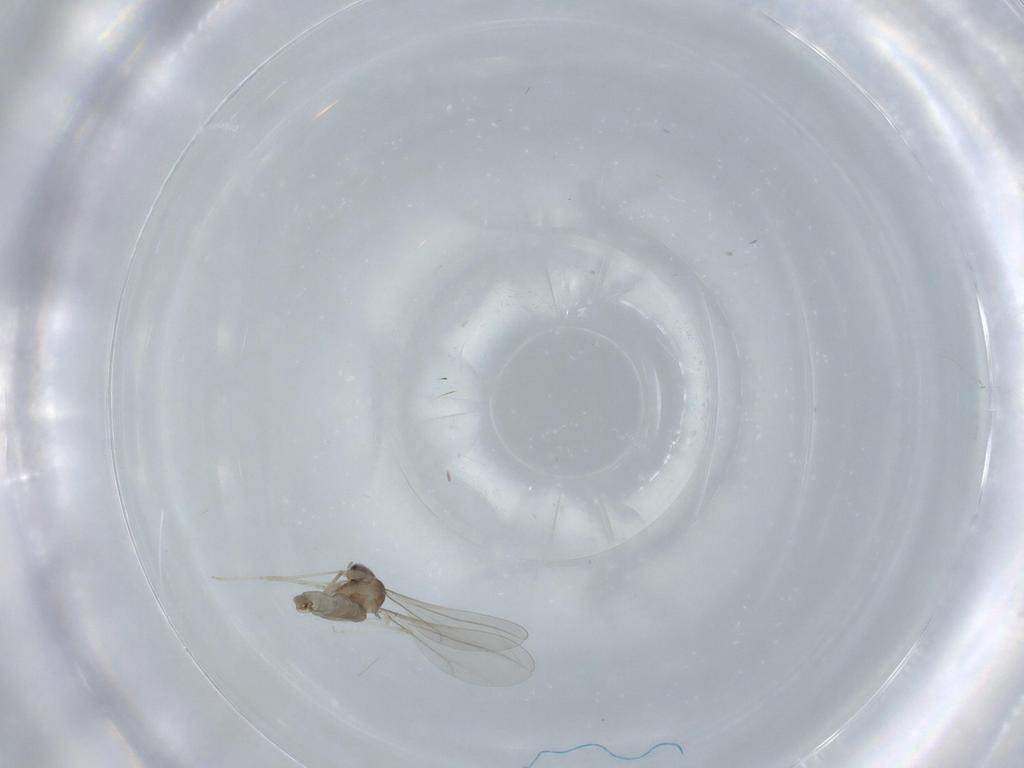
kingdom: Animalia
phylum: Arthropoda
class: Insecta
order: Diptera
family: Cecidomyiidae
